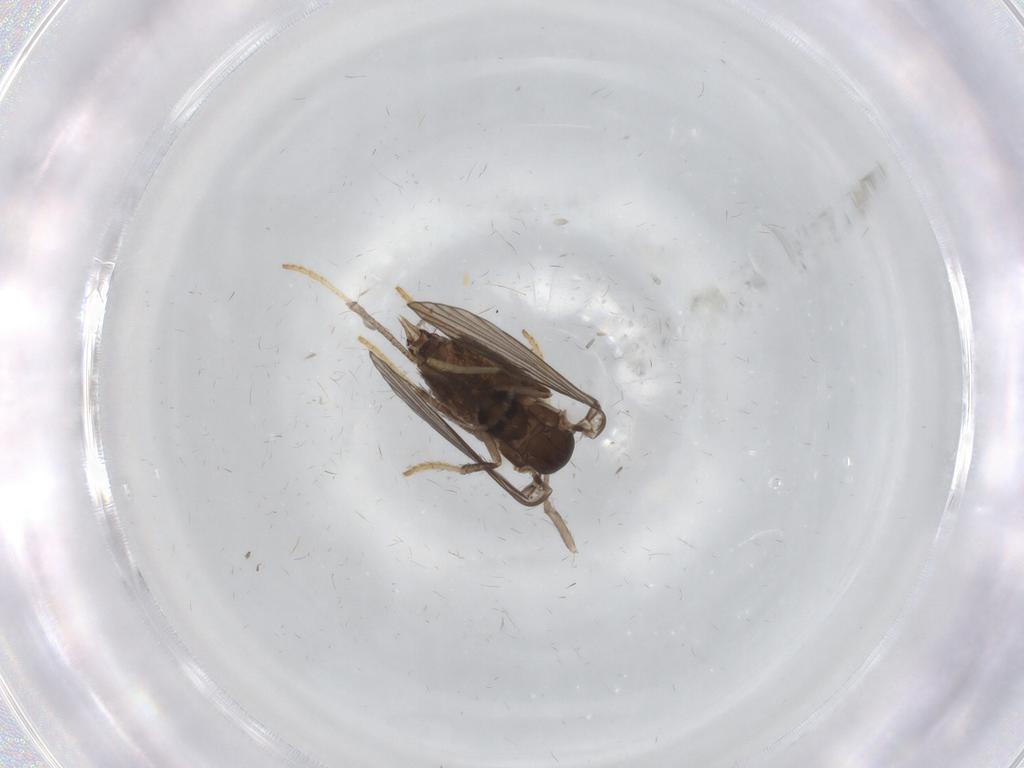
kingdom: Animalia
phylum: Arthropoda
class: Insecta
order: Diptera
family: Psychodidae
